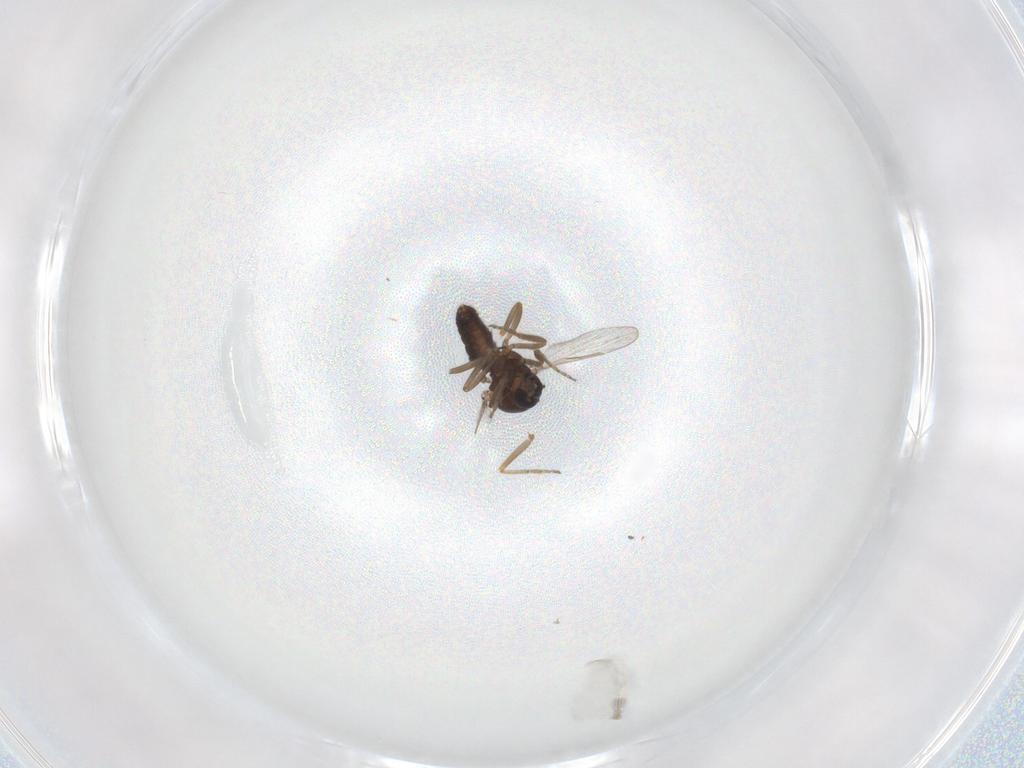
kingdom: Animalia
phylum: Arthropoda
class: Insecta
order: Diptera
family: Ceratopogonidae
